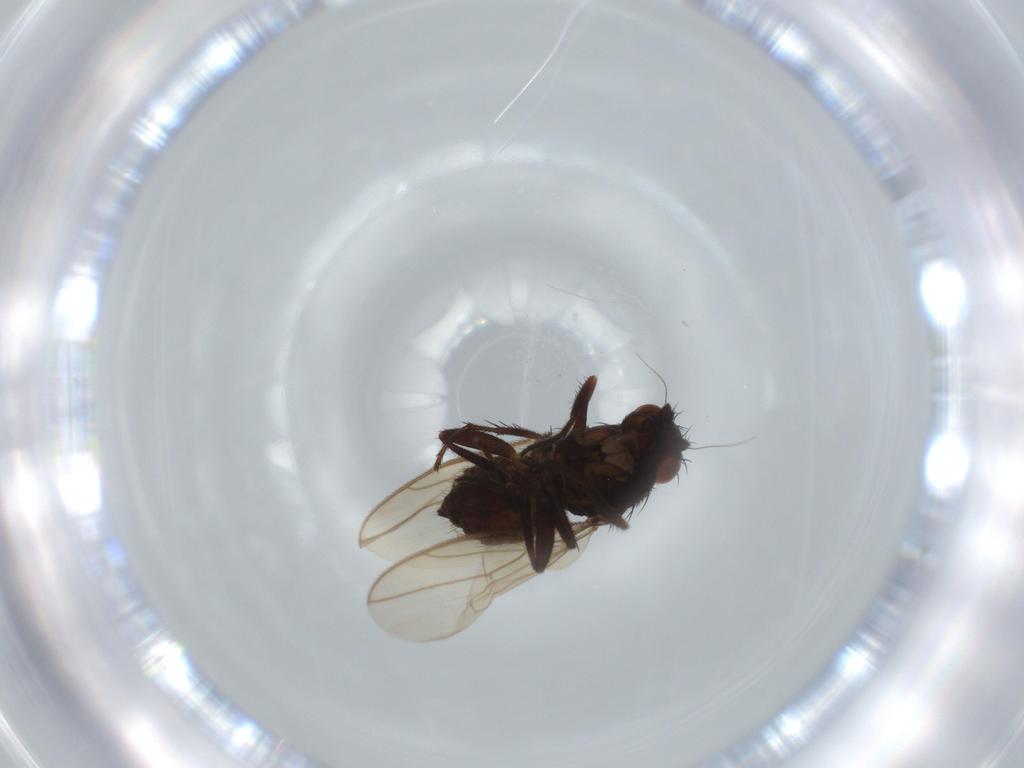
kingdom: Animalia
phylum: Arthropoda
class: Insecta
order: Diptera
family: Sphaeroceridae
